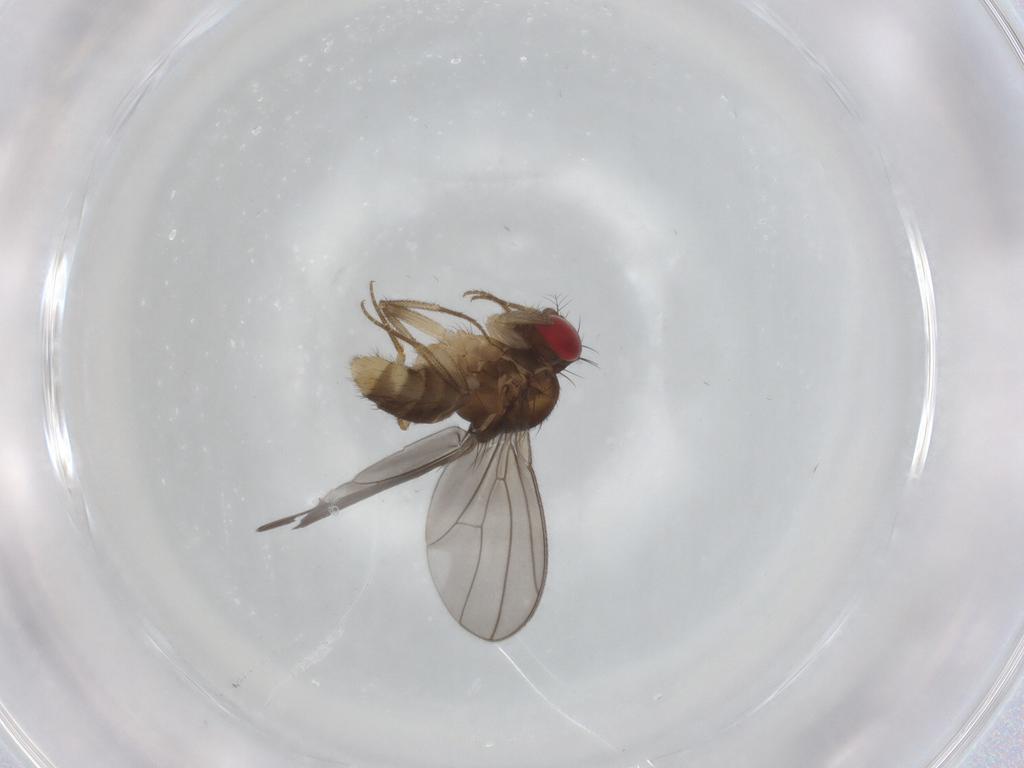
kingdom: Animalia
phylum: Arthropoda
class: Insecta
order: Diptera
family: Drosophilidae
